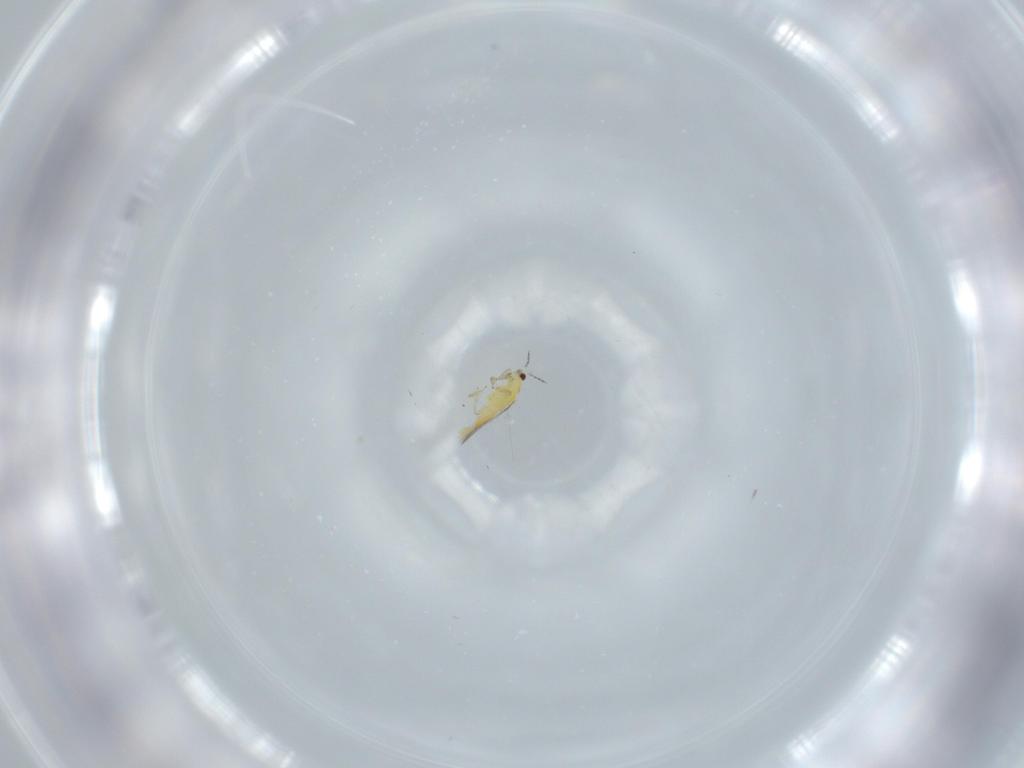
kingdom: Animalia
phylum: Arthropoda
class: Insecta
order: Thysanoptera
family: Thripidae
